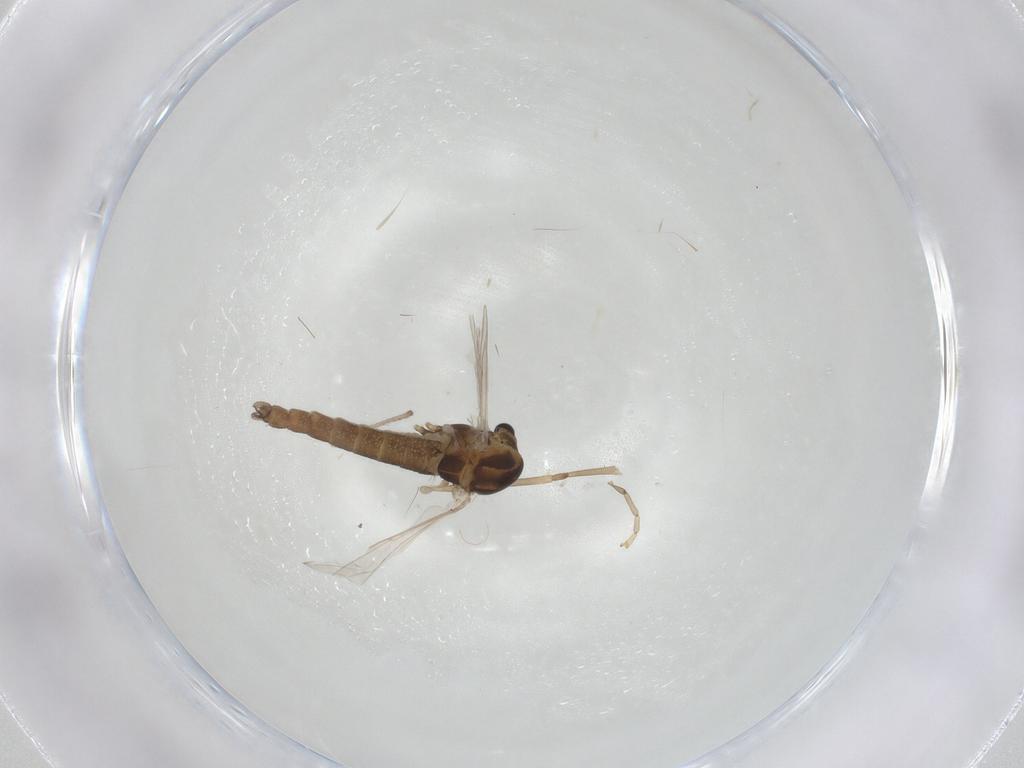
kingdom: Animalia
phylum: Arthropoda
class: Insecta
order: Diptera
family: Chironomidae
